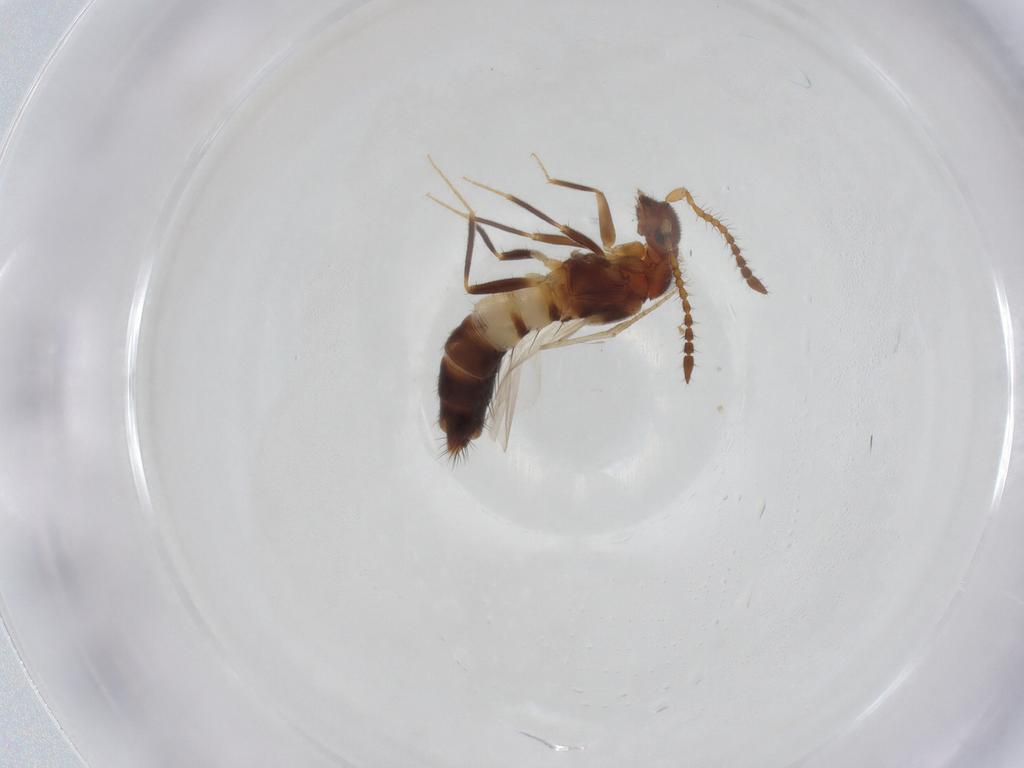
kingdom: Animalia
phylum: Arthropoda
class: Insecta
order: Coleoptera
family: Staphylinidae
